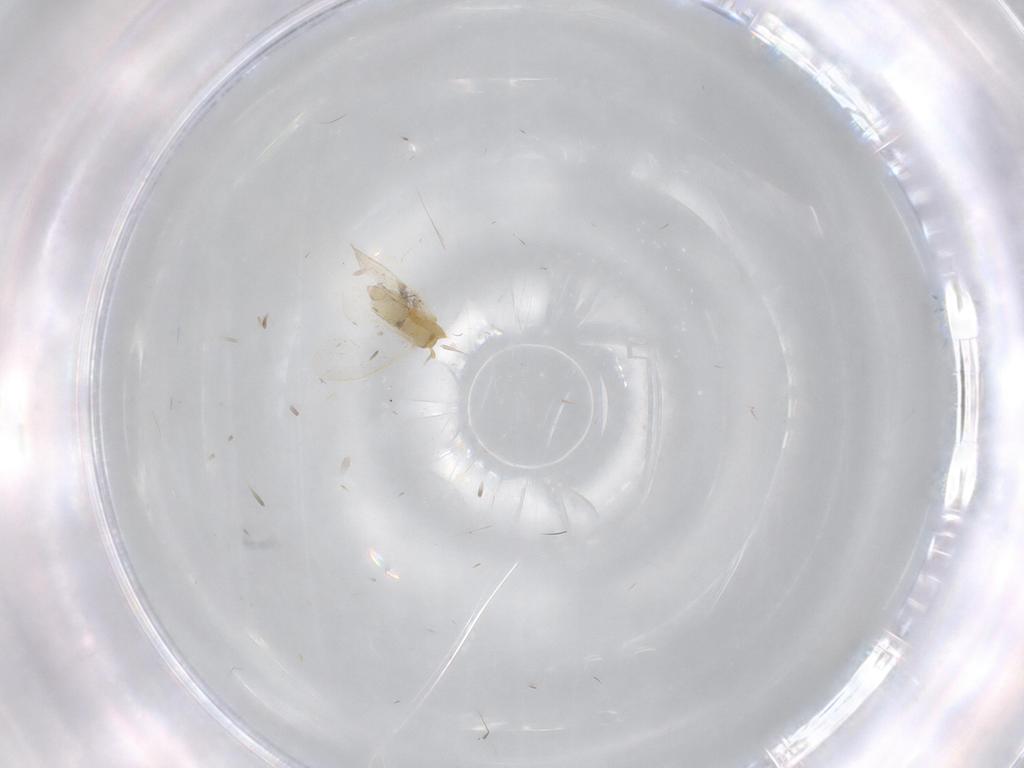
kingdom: Animalia
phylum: Arthropoda
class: Insecta
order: Hemiptera
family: Aleyrodidae
